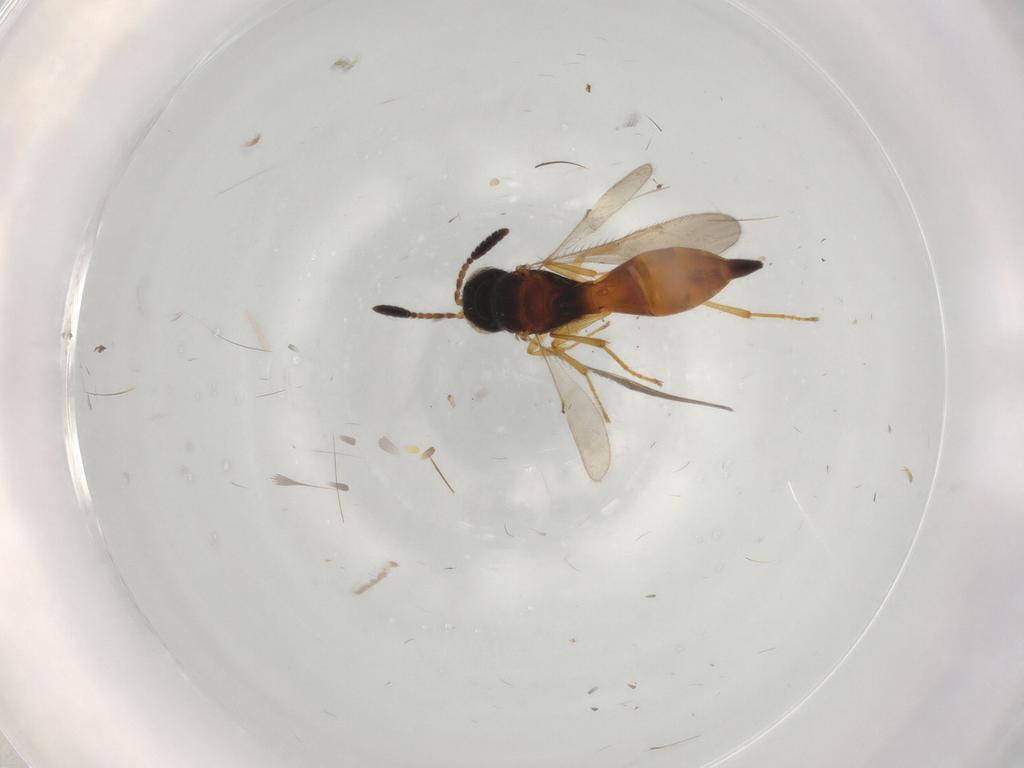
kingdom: Animalia
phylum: Arthropoda
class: Insecta
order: Hymenoptera
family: Scelionidae
